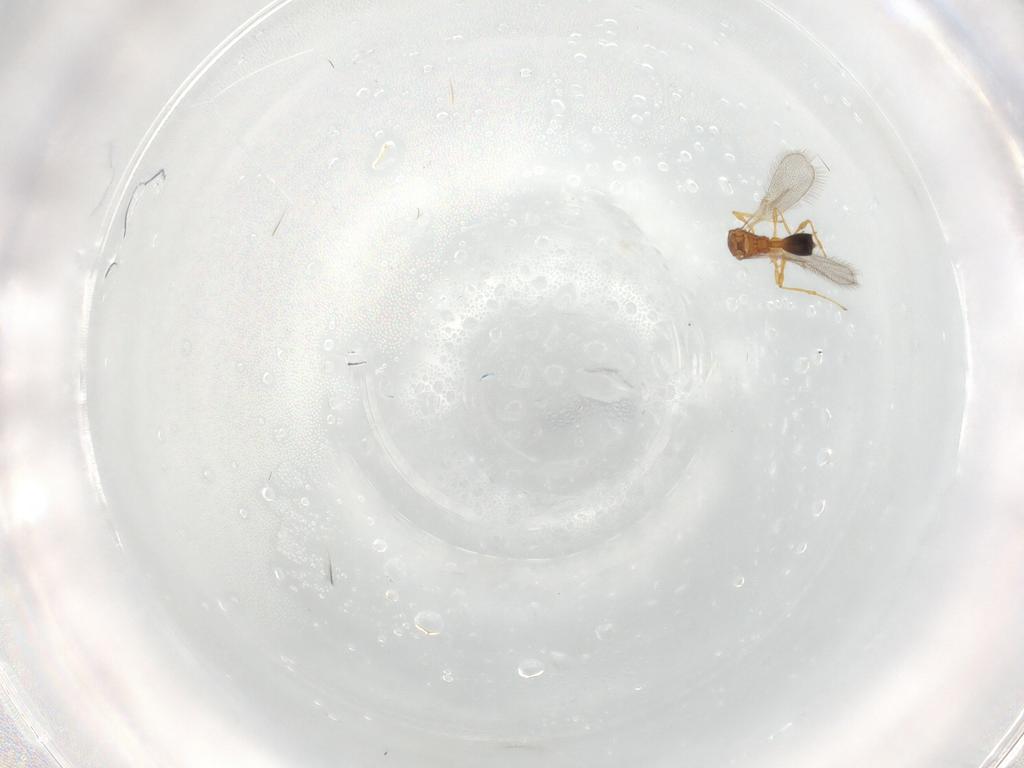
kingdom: Animalia
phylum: Arthropoda
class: Insecta
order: Hymenoptera
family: Diapriidae
